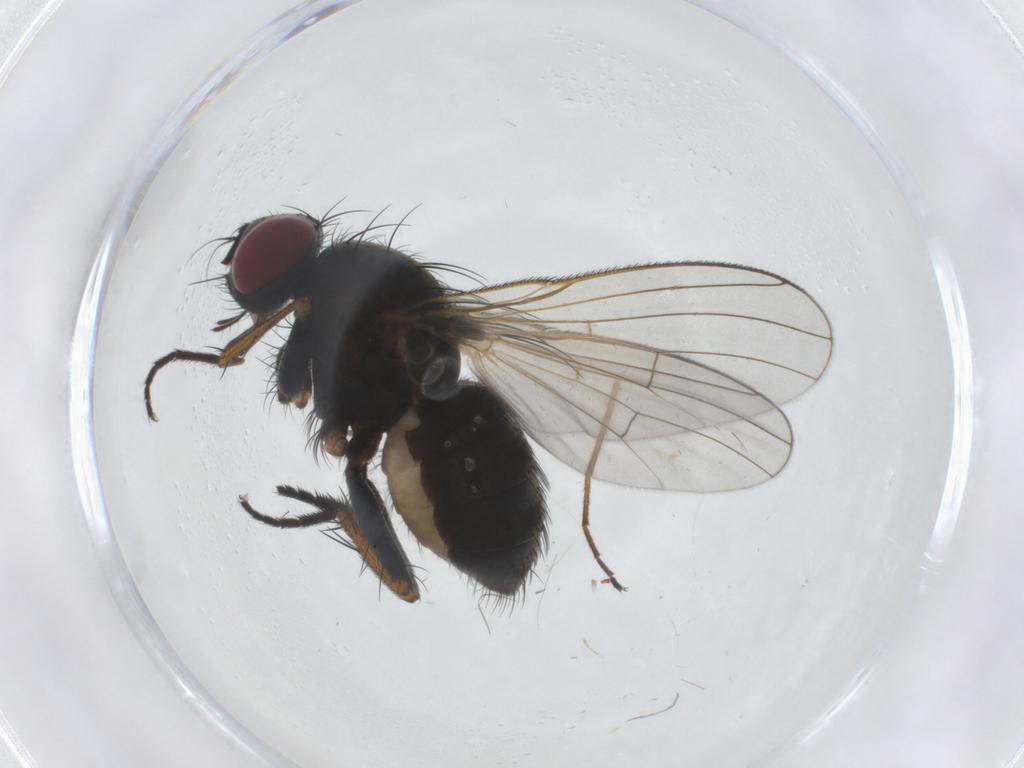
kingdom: Animalia
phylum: Arthropoda
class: Insecta
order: Diptera
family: Muscidae
